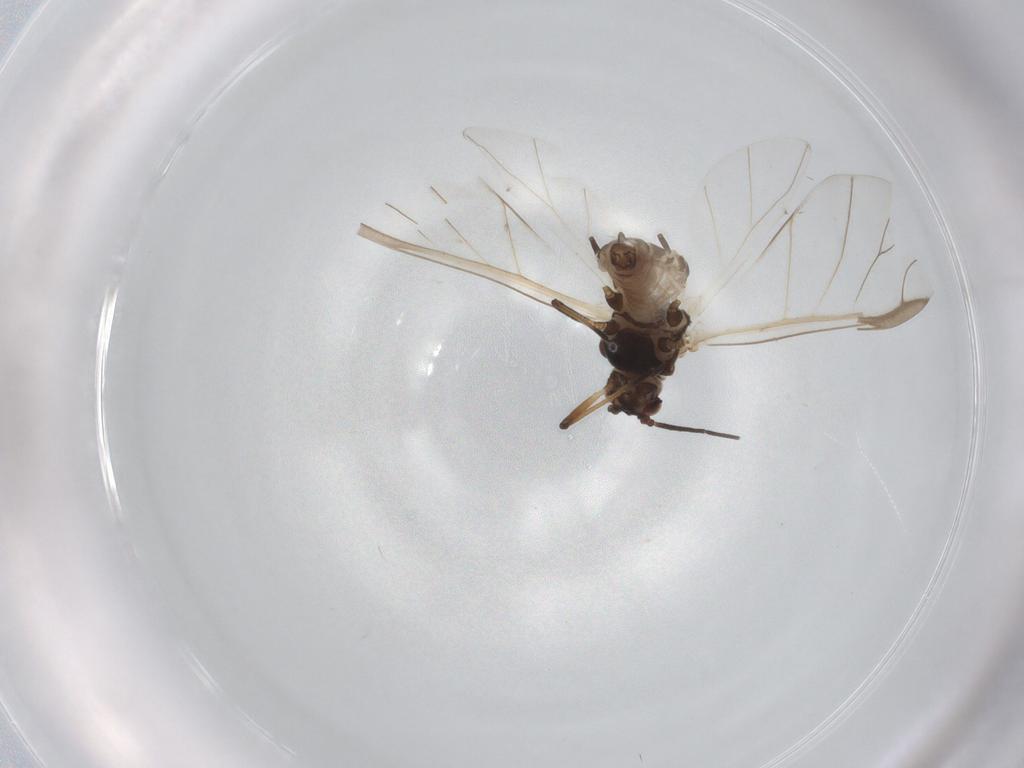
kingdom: Animalia
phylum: Arthropoda
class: Insecta
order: Hemiptera
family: Aphididae
